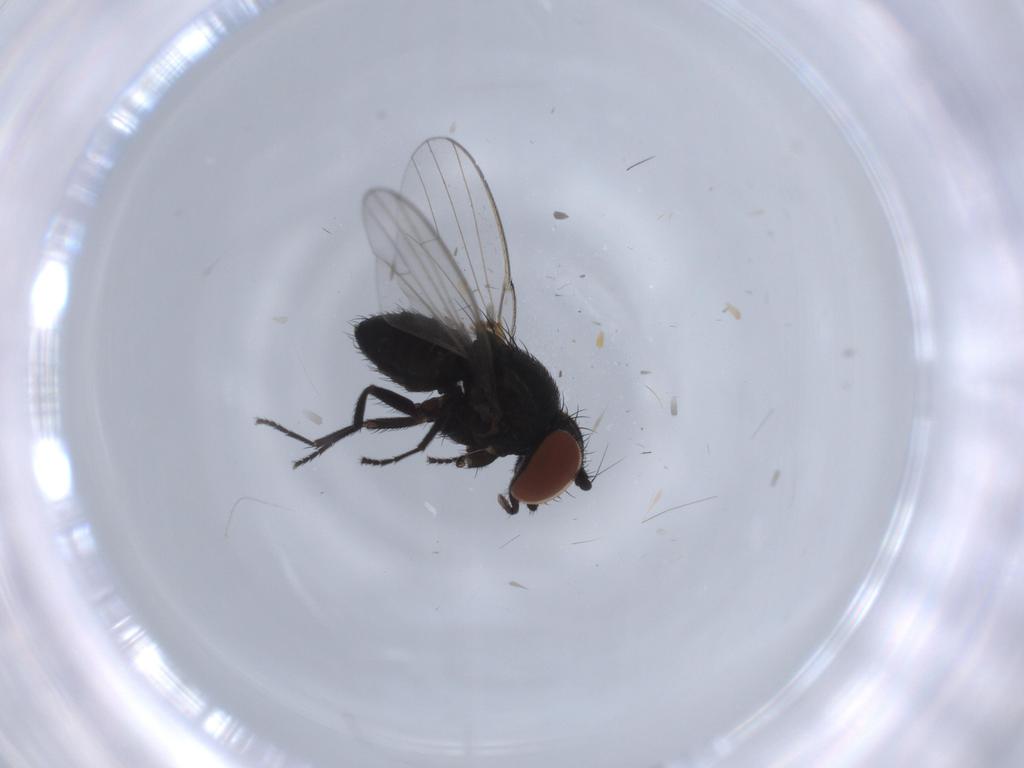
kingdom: Animalia
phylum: Arthropoda
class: Insecta
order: Diptera
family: Milichiidae
